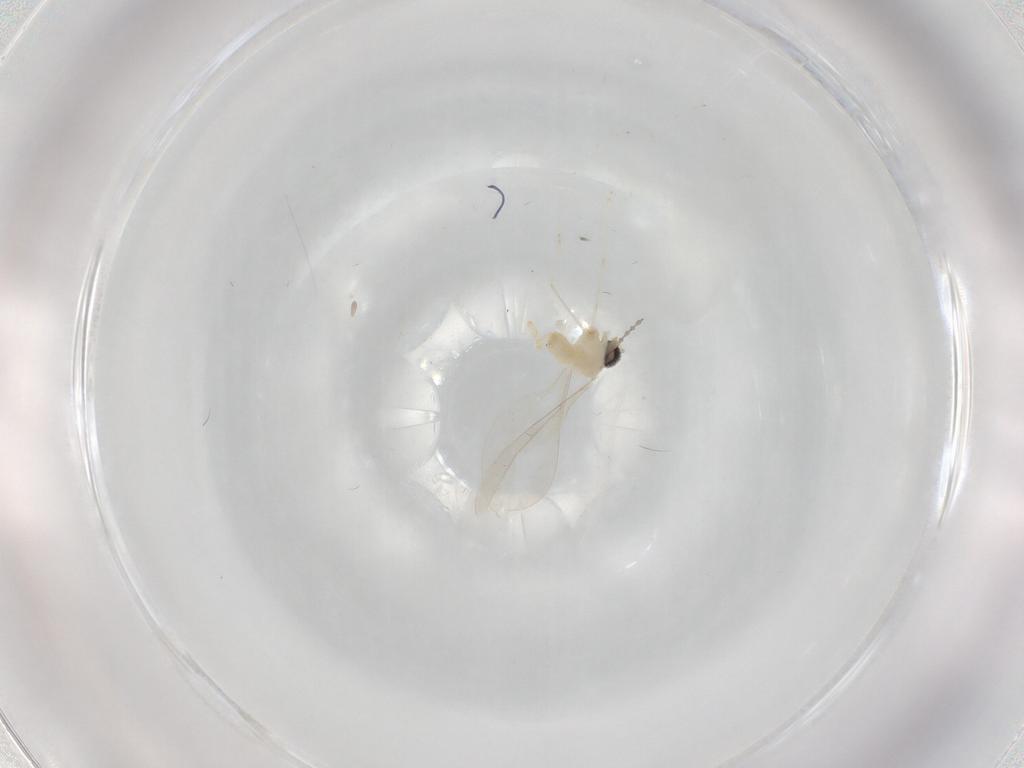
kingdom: Animalia
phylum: Arthropoda
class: Insecta
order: Diptera
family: Cecidomyiidae
